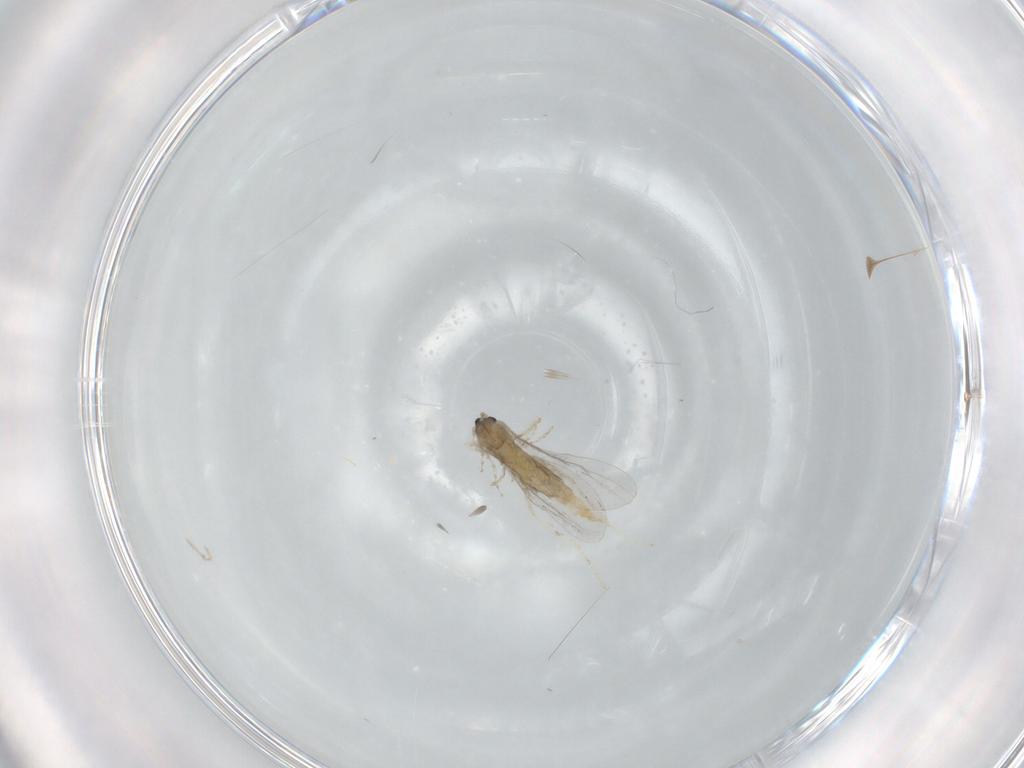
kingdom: Animalia
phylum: Arthropoda
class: Insecta
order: Diptera
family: Cecidomyiidae
